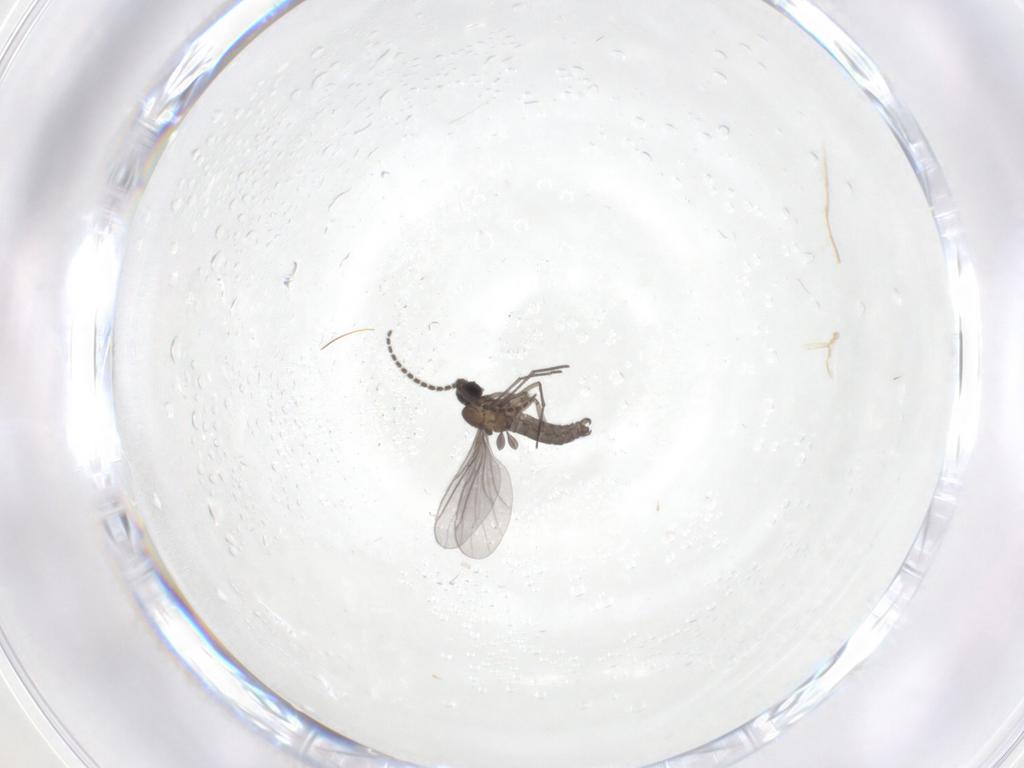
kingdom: Animalia
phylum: Arthropoda
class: Insecta
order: Diptera
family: Sciaridae
